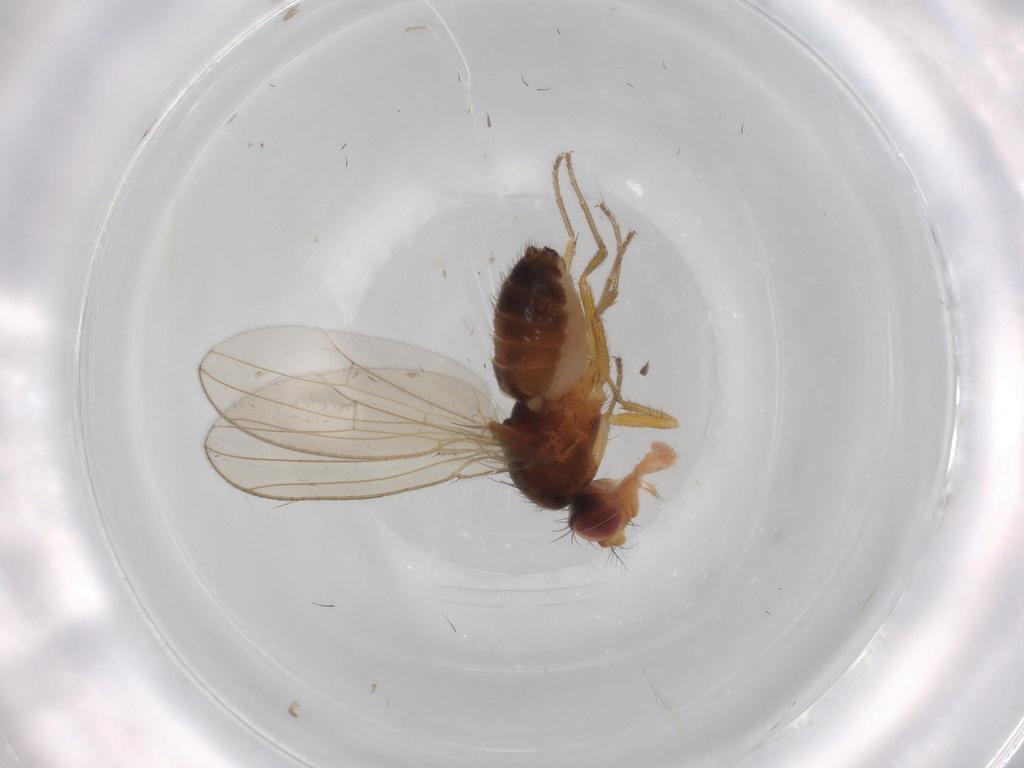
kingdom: Animalia
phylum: Arthropoda
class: Insecta
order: Diptera
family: Drosophilidae
